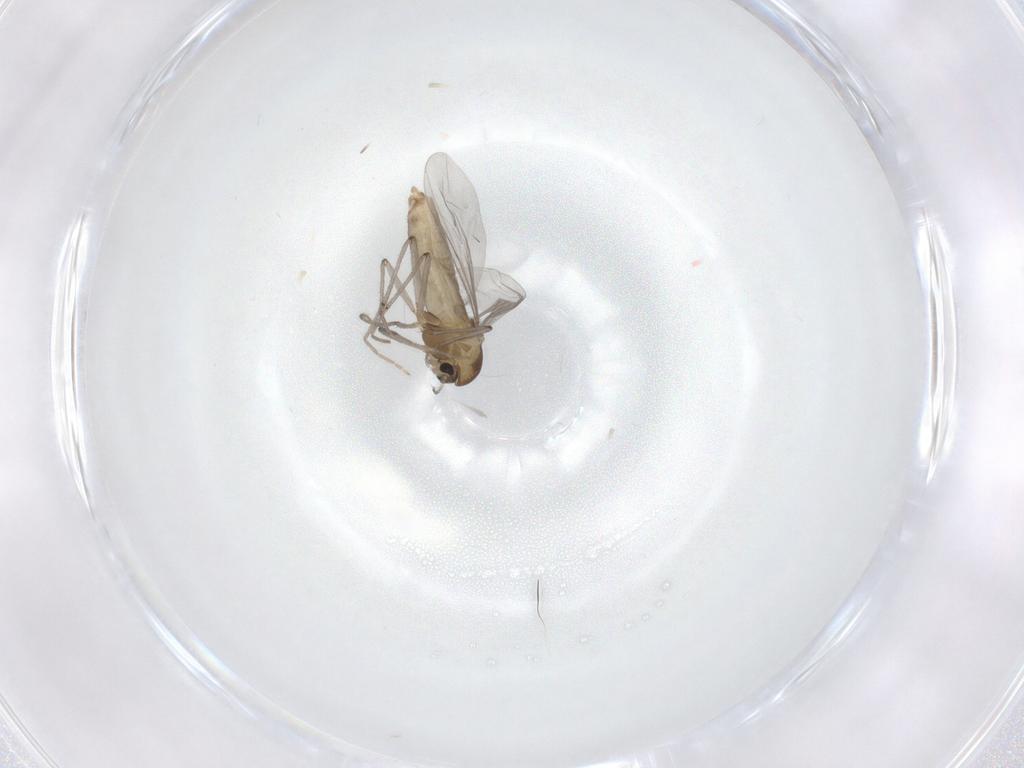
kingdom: Animalia
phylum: Arthropoda
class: Insecta
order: Diptera
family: Chironomidae
